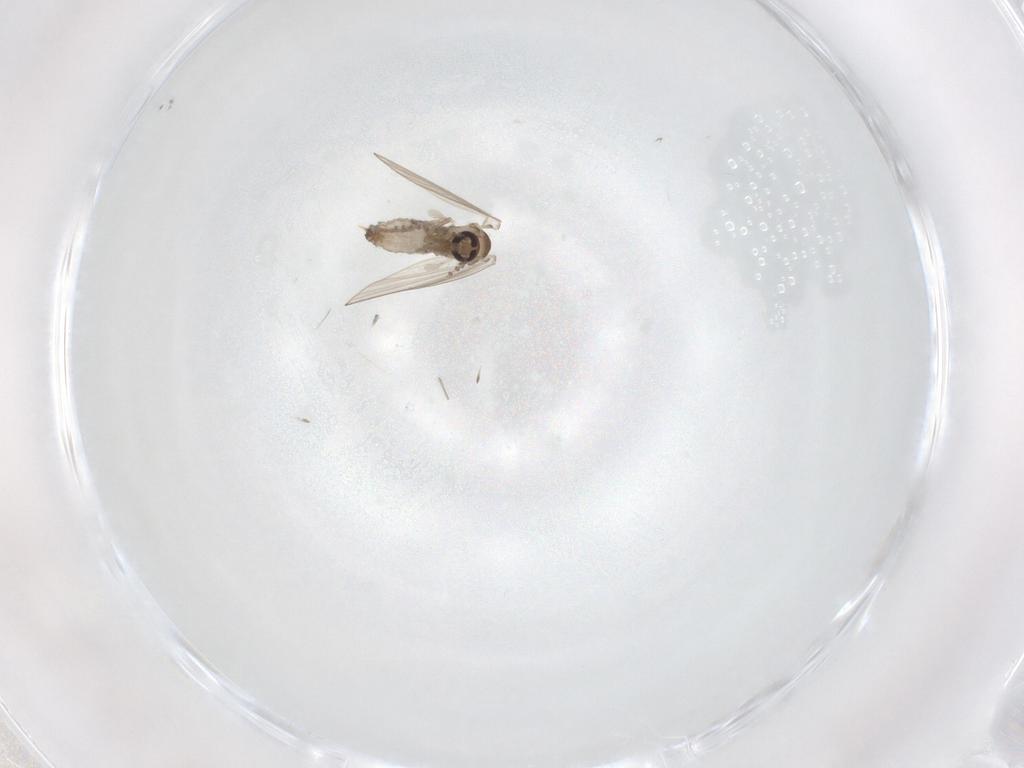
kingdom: Animalia
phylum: Arthropoda
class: Insecta
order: Diptera
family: Psychodidae
